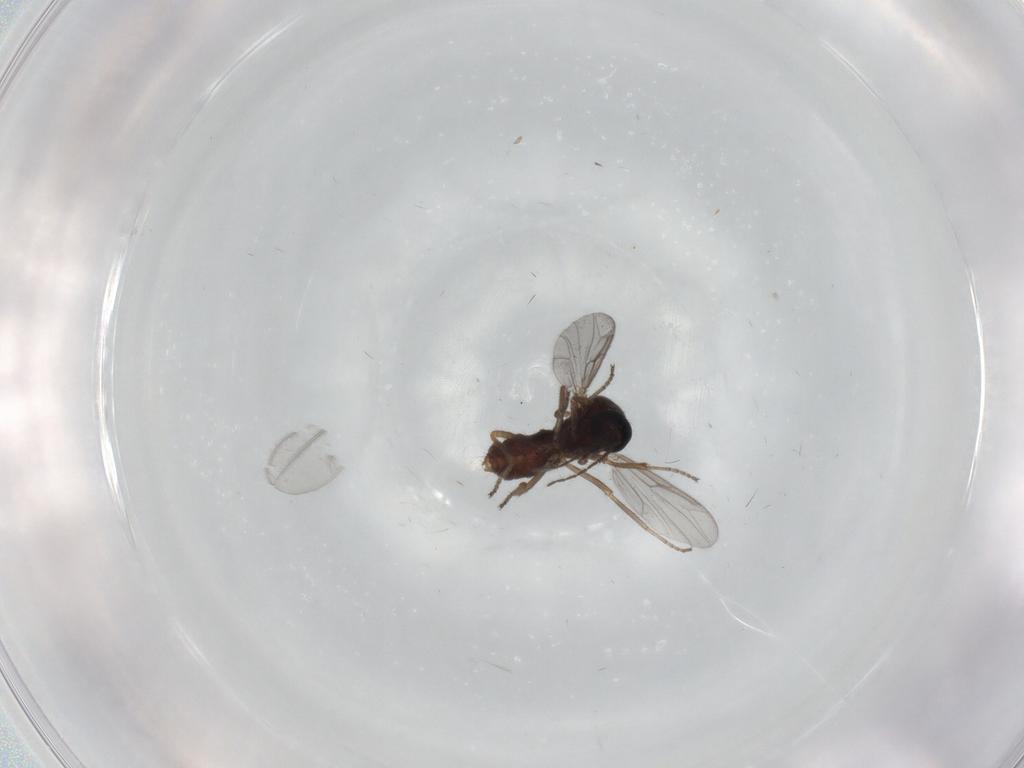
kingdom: Animalia
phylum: Arthropoda
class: Insecta
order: Diptera
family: Ceratopogonidae
